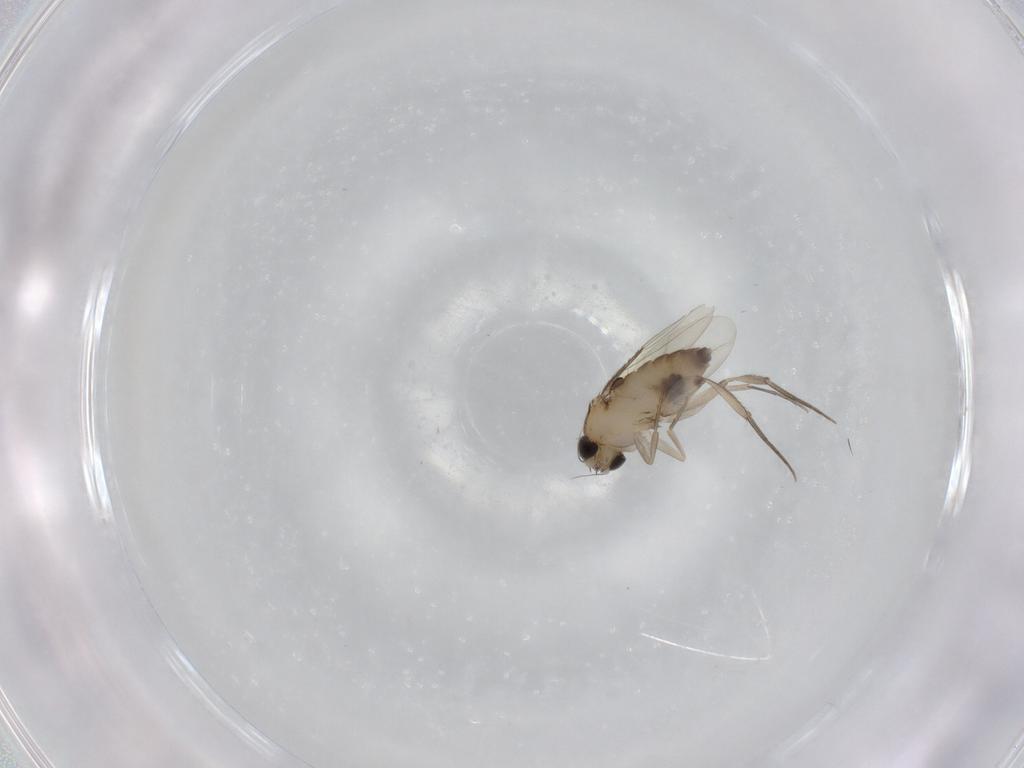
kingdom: Animalia
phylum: Arthropoda
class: Insecta
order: Diptera
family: Phoridae
